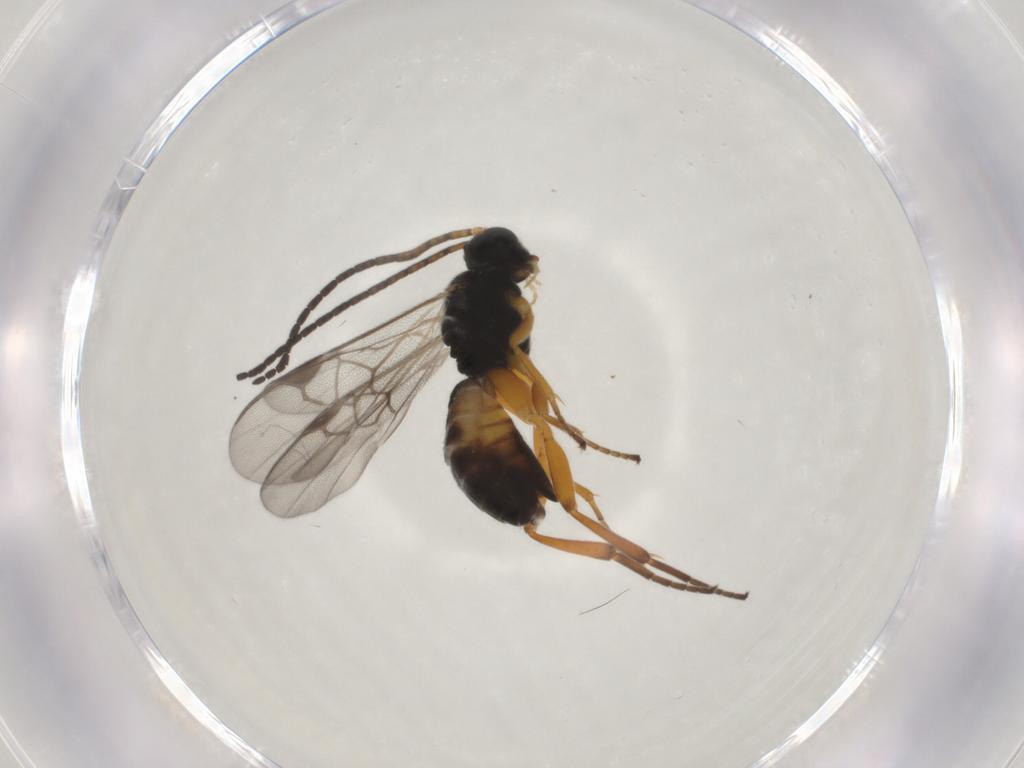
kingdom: Animalia
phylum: Arthropoda
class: Insecta
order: Hymenoptera
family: Braconidae
